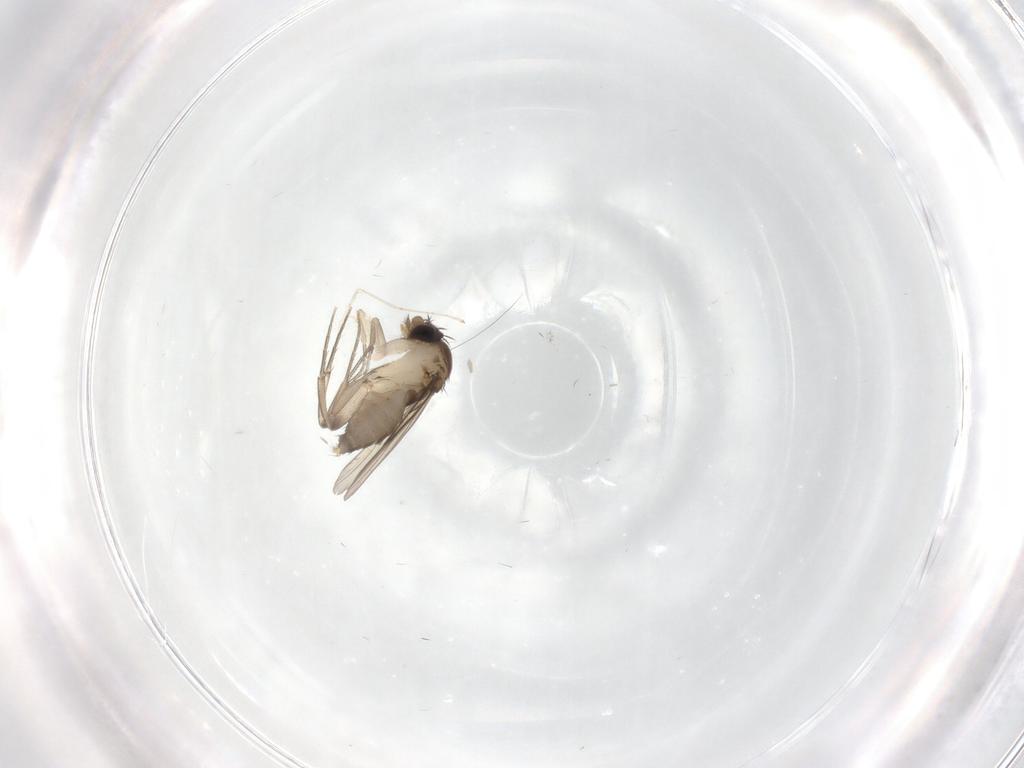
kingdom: Animalia
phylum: Arthropoda
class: Insecta
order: Diptera
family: Phoridae
